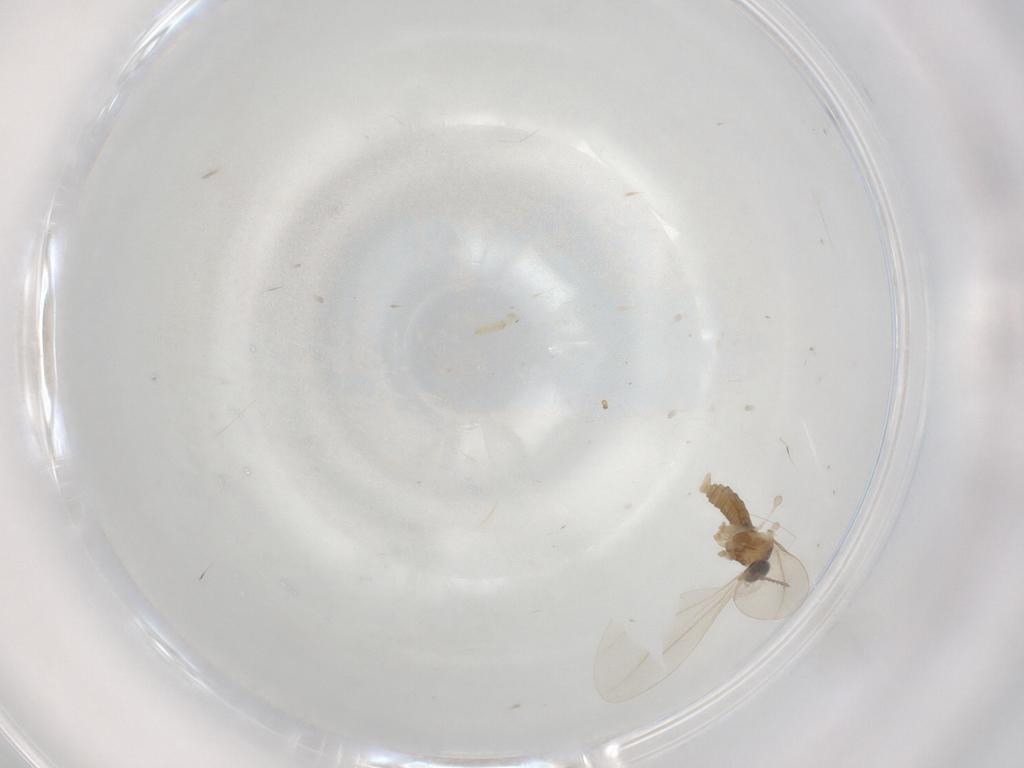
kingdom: Animalia
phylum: Arthropoda
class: Insecta
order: Diptera
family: Cecidomyiidae
